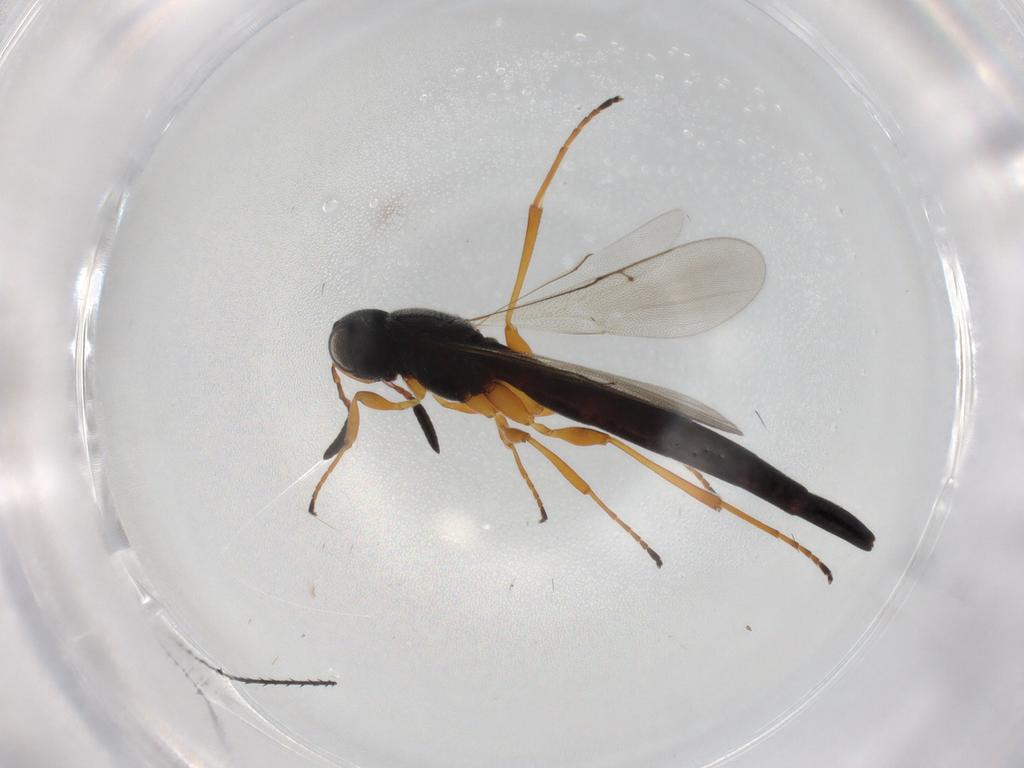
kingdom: Animalia
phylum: Arthropoda
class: Insecta
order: Hymenoptera
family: Scelionidae
